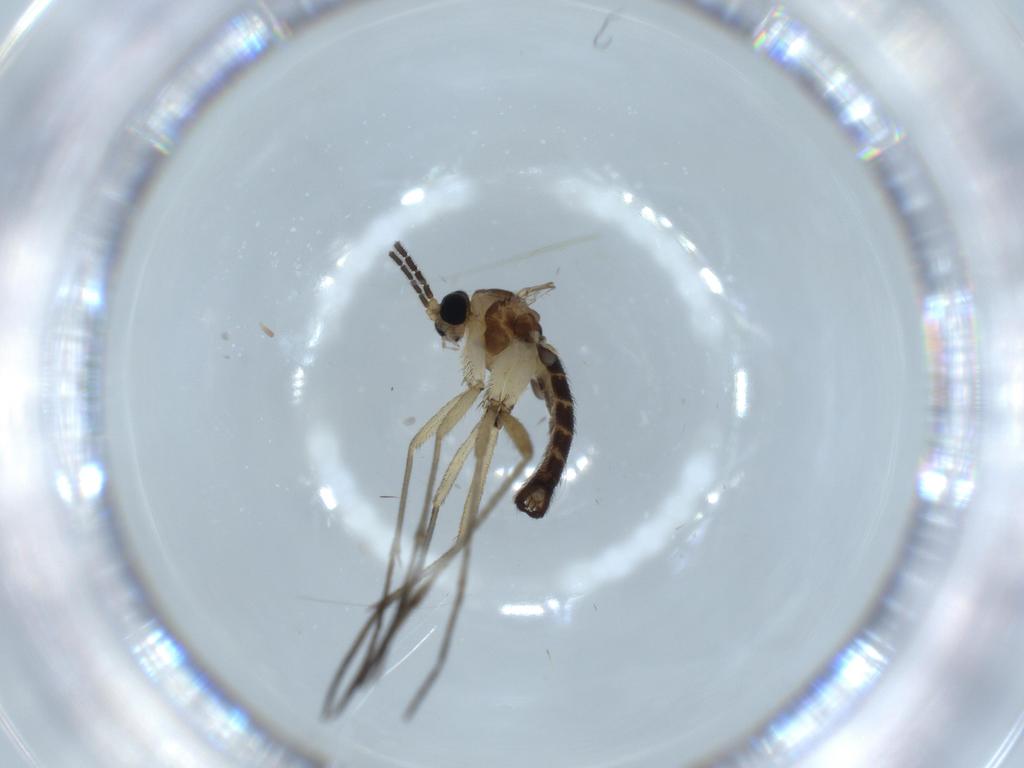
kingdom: Animalia
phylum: Arthropoda
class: Insecta
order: Diptera
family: Sciaridae
